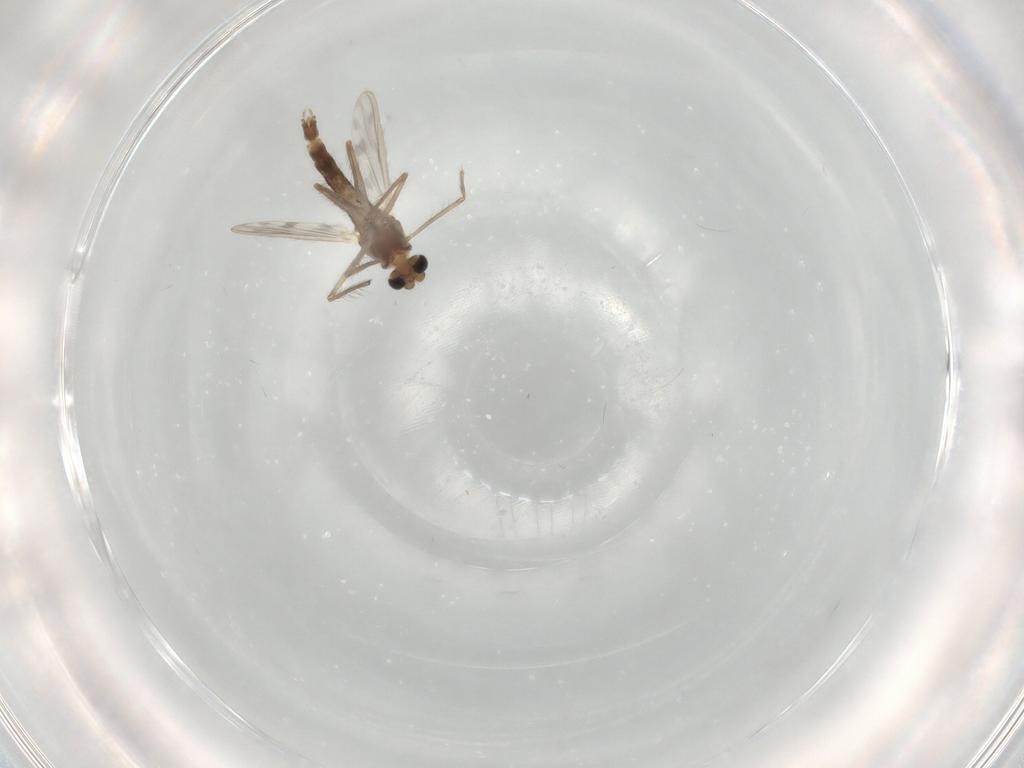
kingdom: Animalia
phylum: Arthropoda
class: Insecta
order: Diptera
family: Chironomidae
